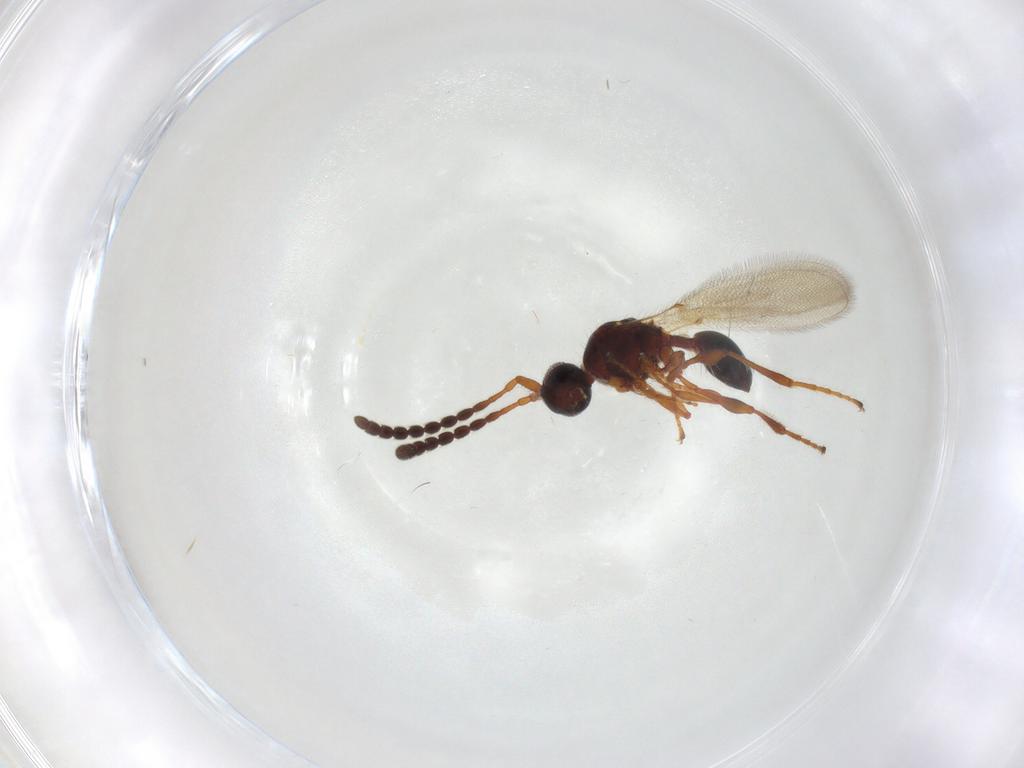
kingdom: Animalia
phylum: Arthropoda
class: Insecta
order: Hymenoptera
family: Diapriidae
